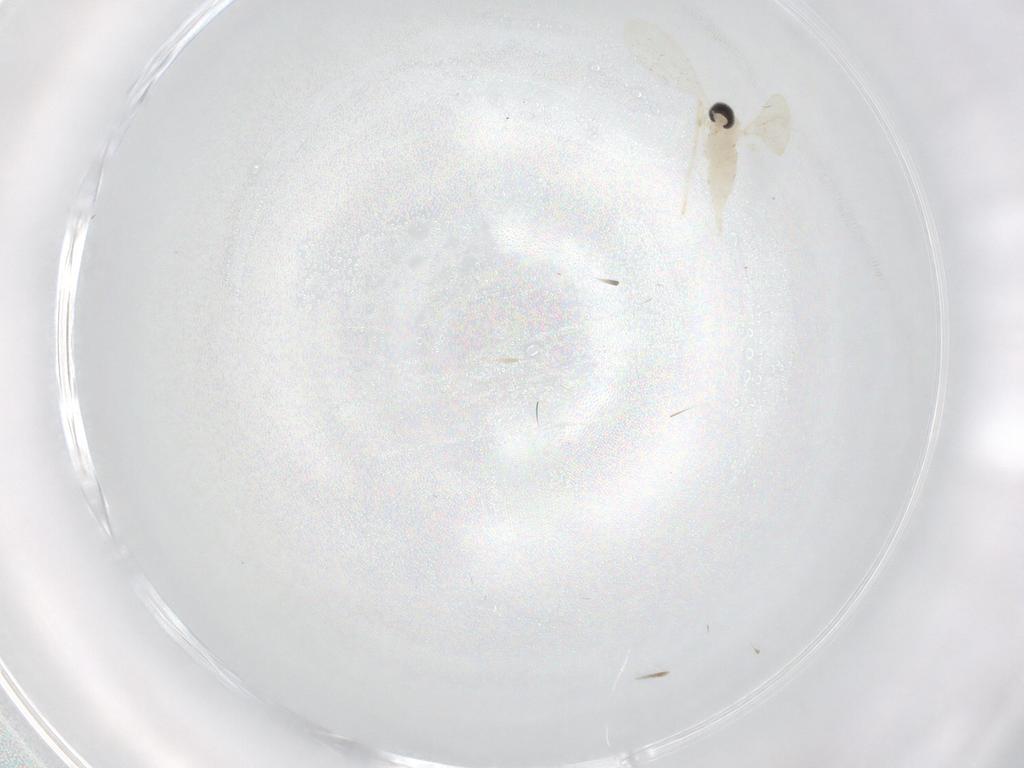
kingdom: Animalia
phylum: Arthropoda
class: Insecta
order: Diptera
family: Cecidomyiidae
